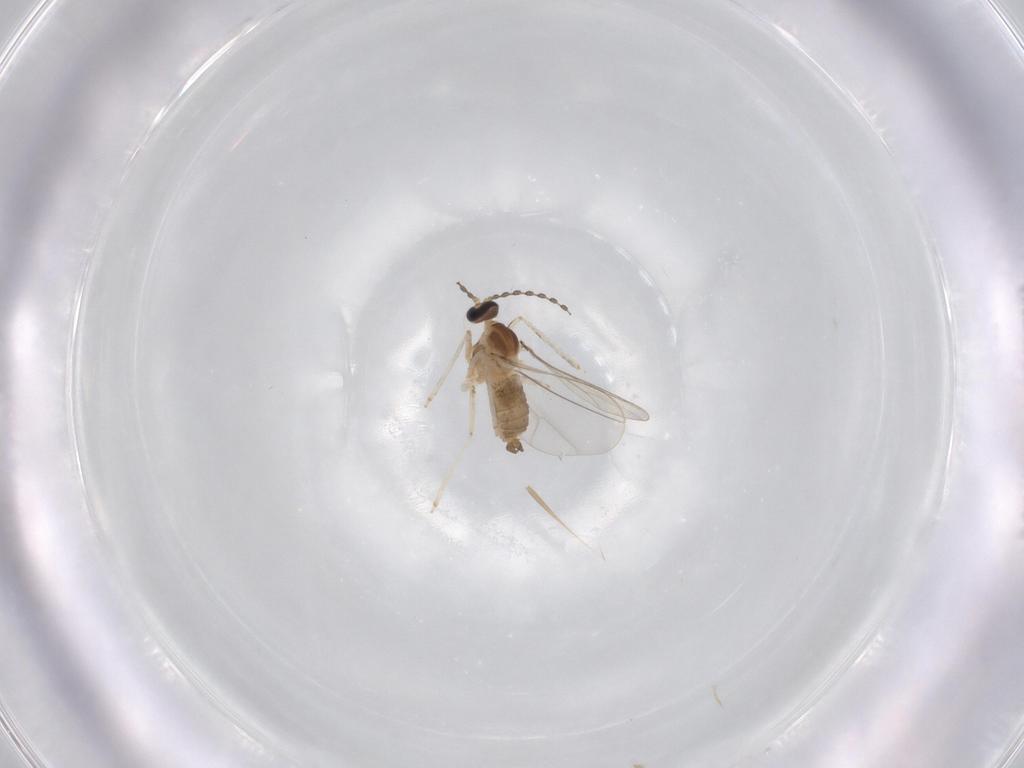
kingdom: Animalia
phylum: Arthropoda
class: Insecta
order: Diptera
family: Cecidomyiidae
